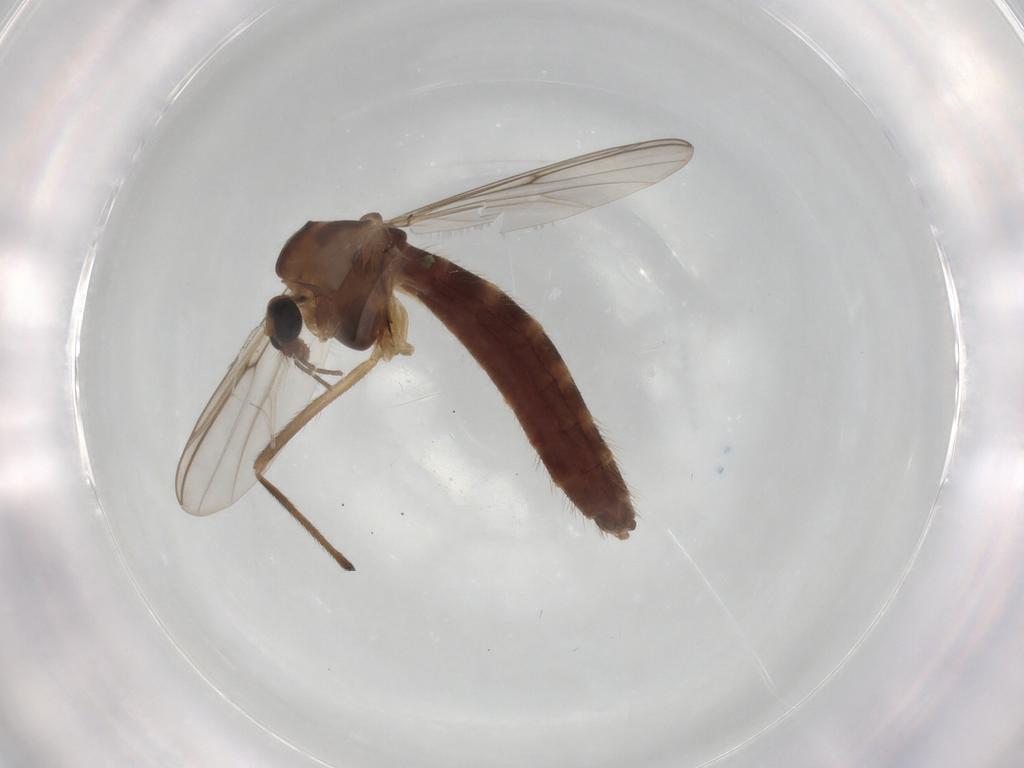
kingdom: Animalia
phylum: Arthropoda
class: Insecta
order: Diptera
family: Chironomidae
